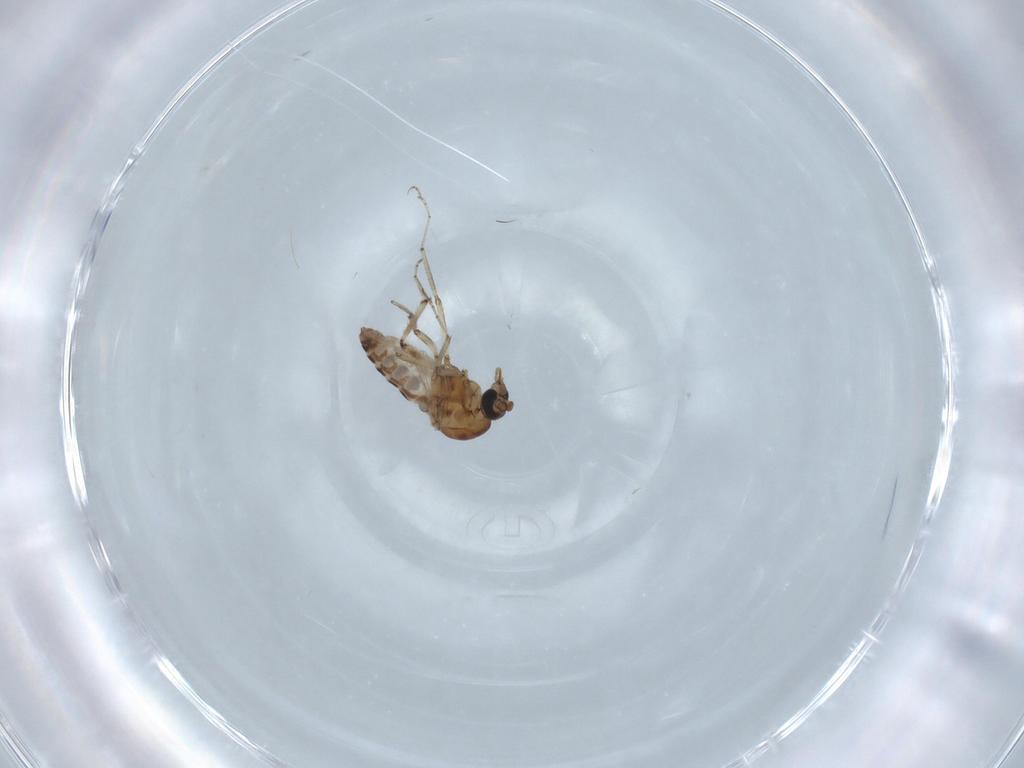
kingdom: Animalia
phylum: Arthropoda
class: Insecta
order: Diptera
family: Ceratopogonidae
